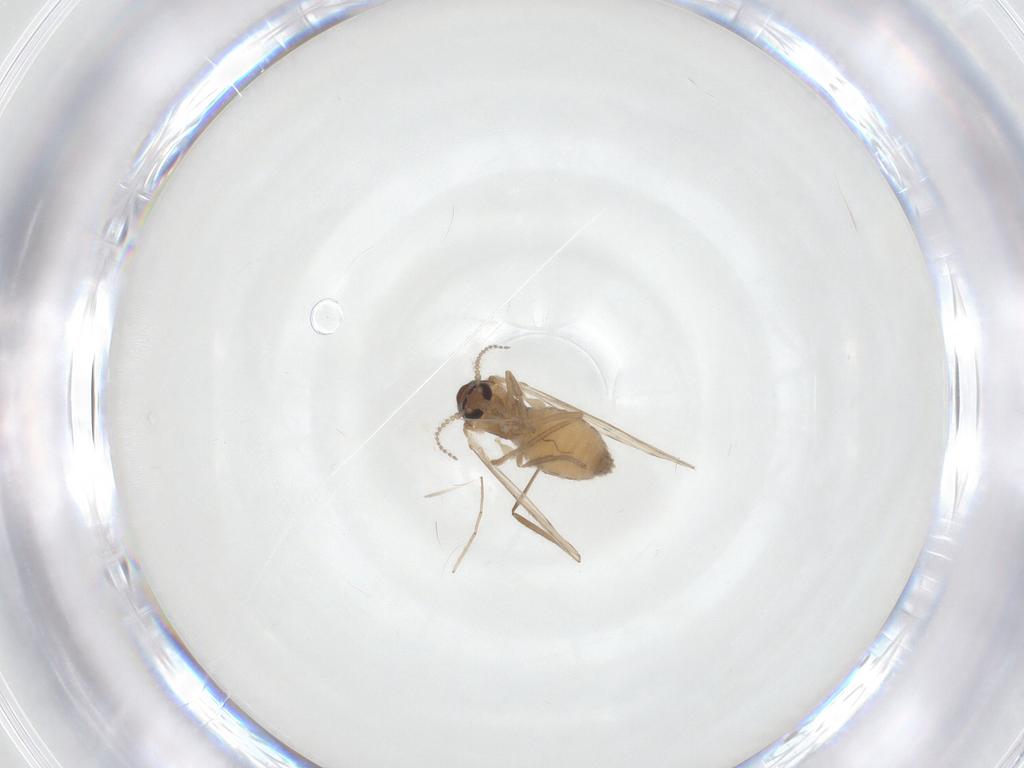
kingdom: Animalia
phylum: Arthropoda
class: Insecta
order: Diptera
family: Psychodidae
